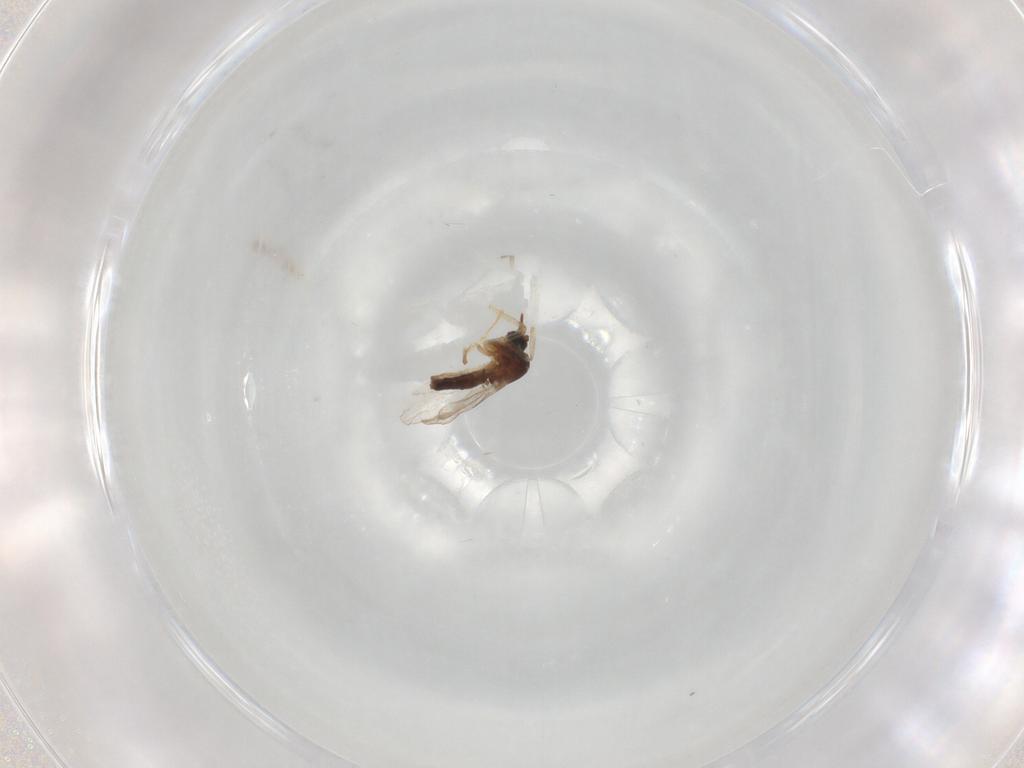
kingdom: Animalia
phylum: Arthropoda
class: Insecta
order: Diptera
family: Ceratopogonidae
